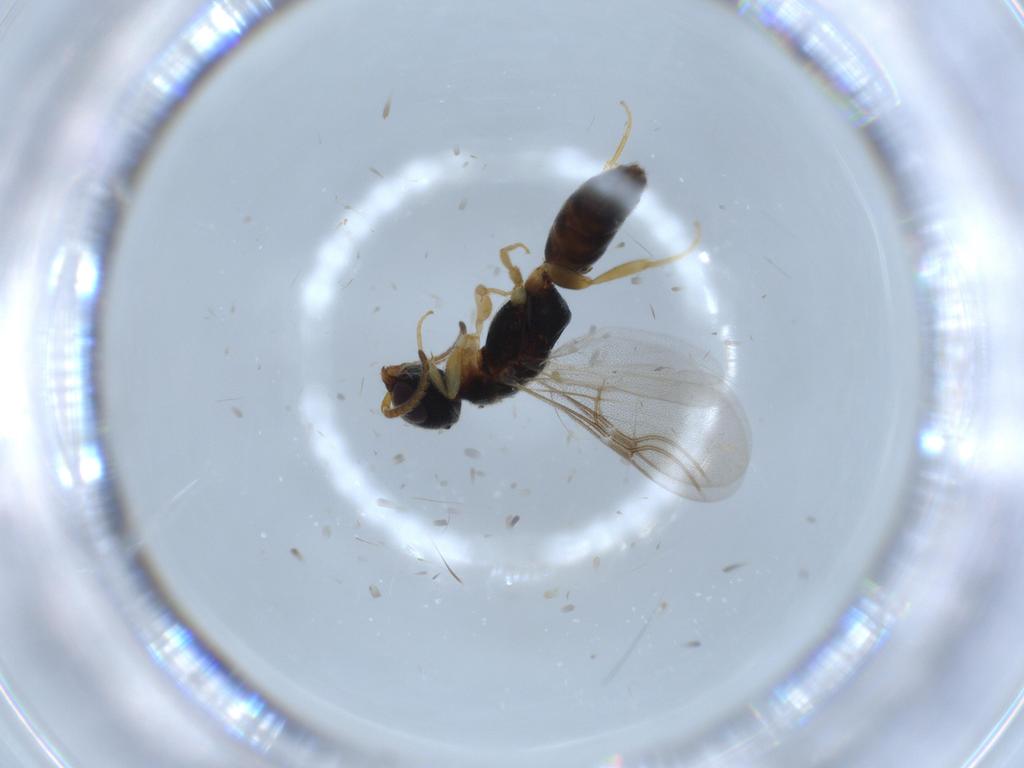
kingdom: Animalia
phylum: Arthropoda
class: Insecta
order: Hymenoptera
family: Bethylidae
